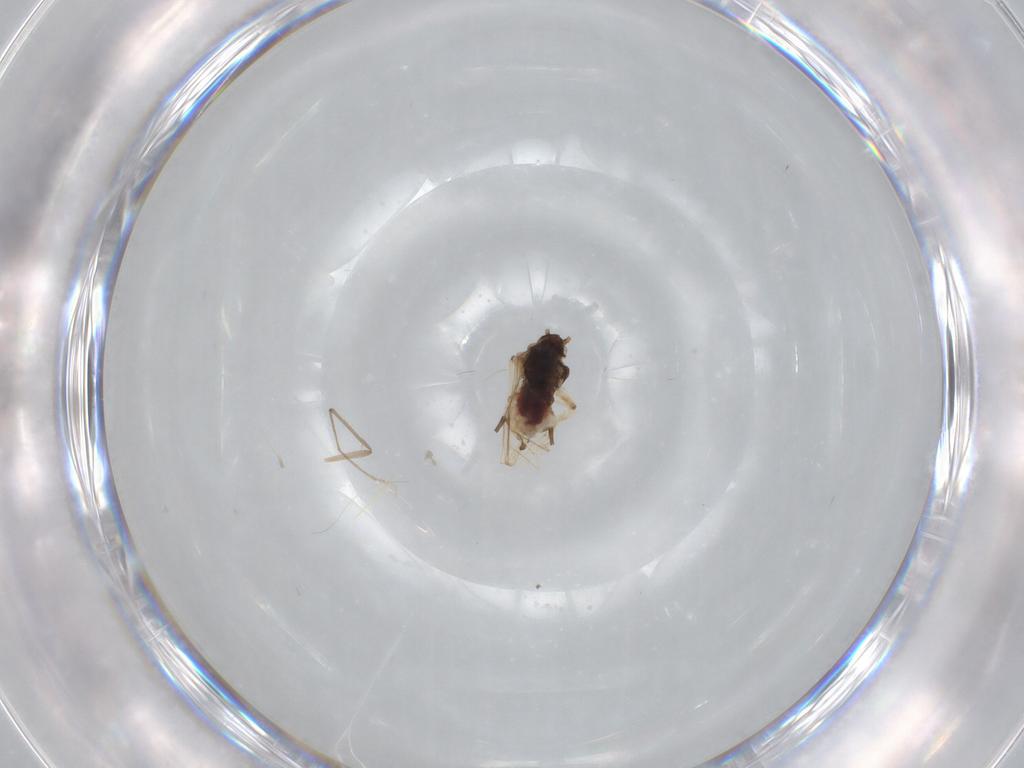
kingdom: Animalia
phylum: Arthropoda
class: Insecta
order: Hemiptera
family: Aphididae
